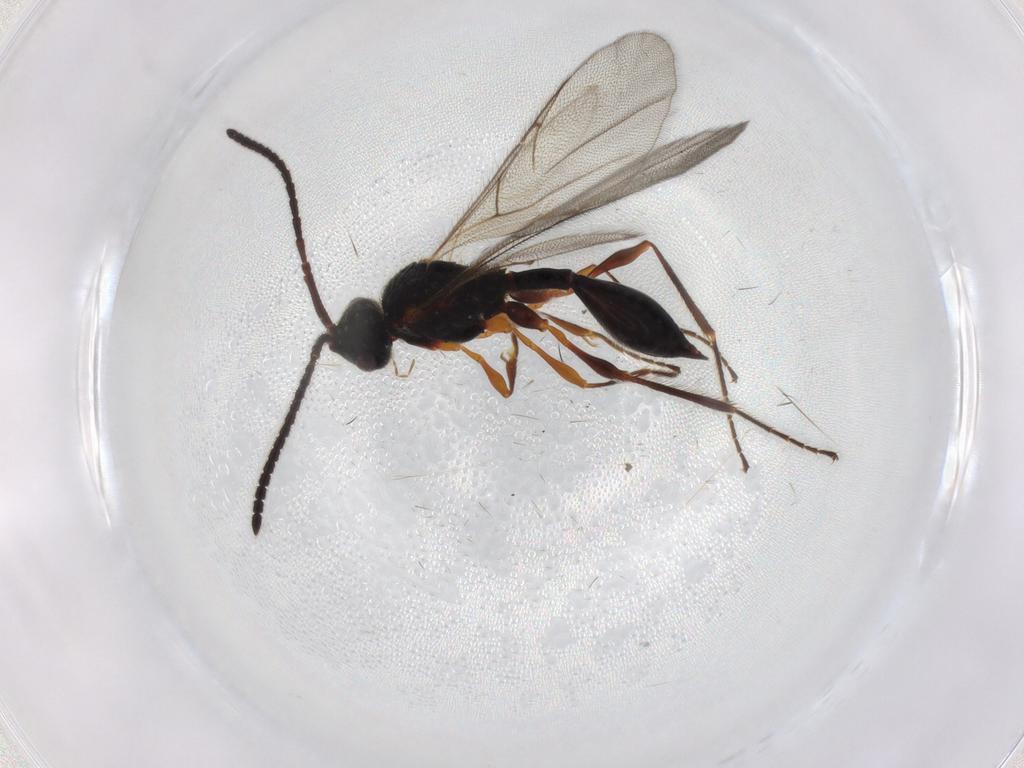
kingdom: Animalia
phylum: Arthropoda
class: Insecta
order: Hymenoptera
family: Diapriidae
